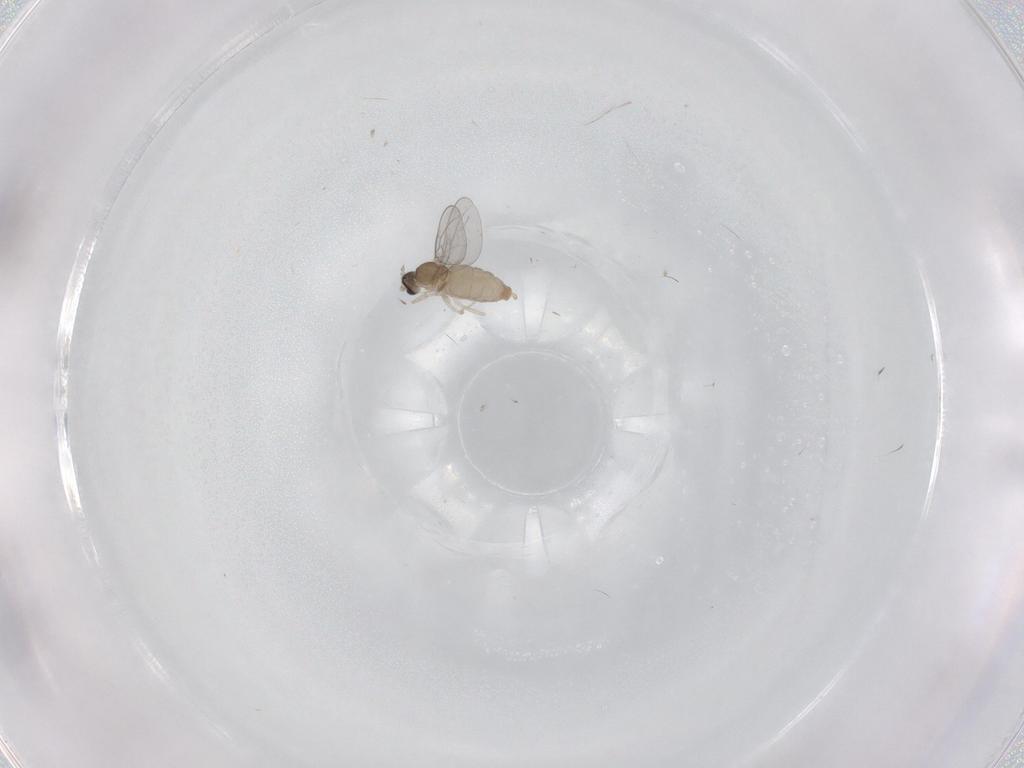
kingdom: Animalia
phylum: Arthropoda
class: Insecta
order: Diptera
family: Cecidomyiidae
